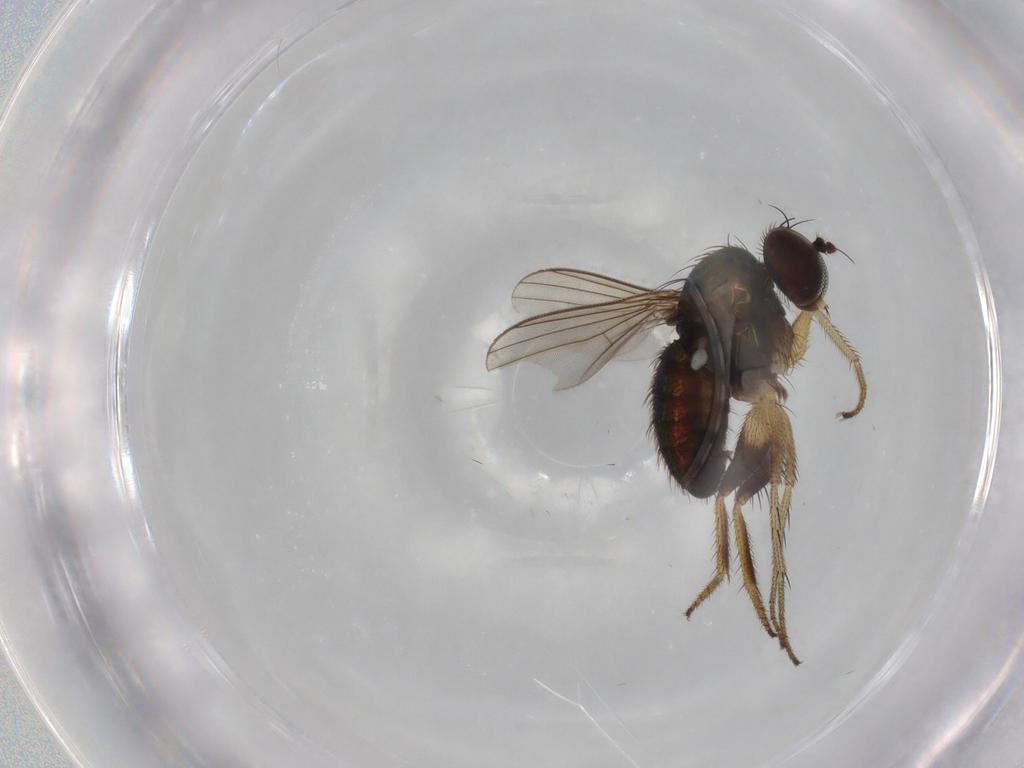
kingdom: Animalia
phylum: Arthropoda
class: Insecta
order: Diptera
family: Dolichopodidae
